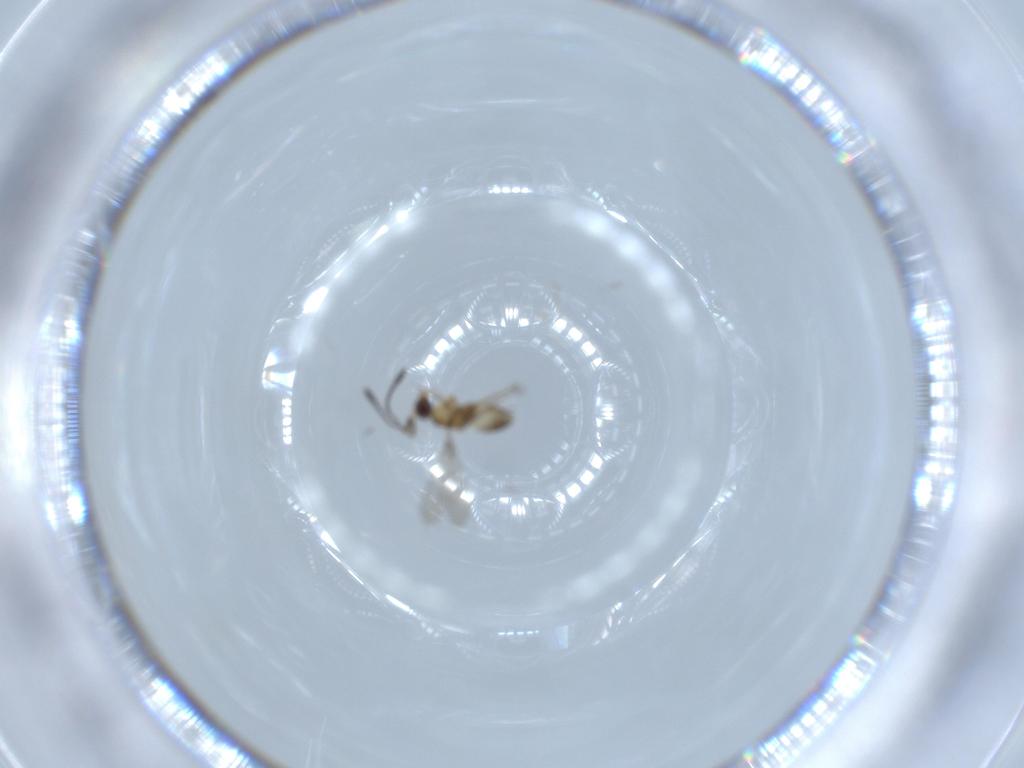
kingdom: Animalia
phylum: Arthropoda
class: Insecta
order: Hymenoptera
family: Mymaridae
